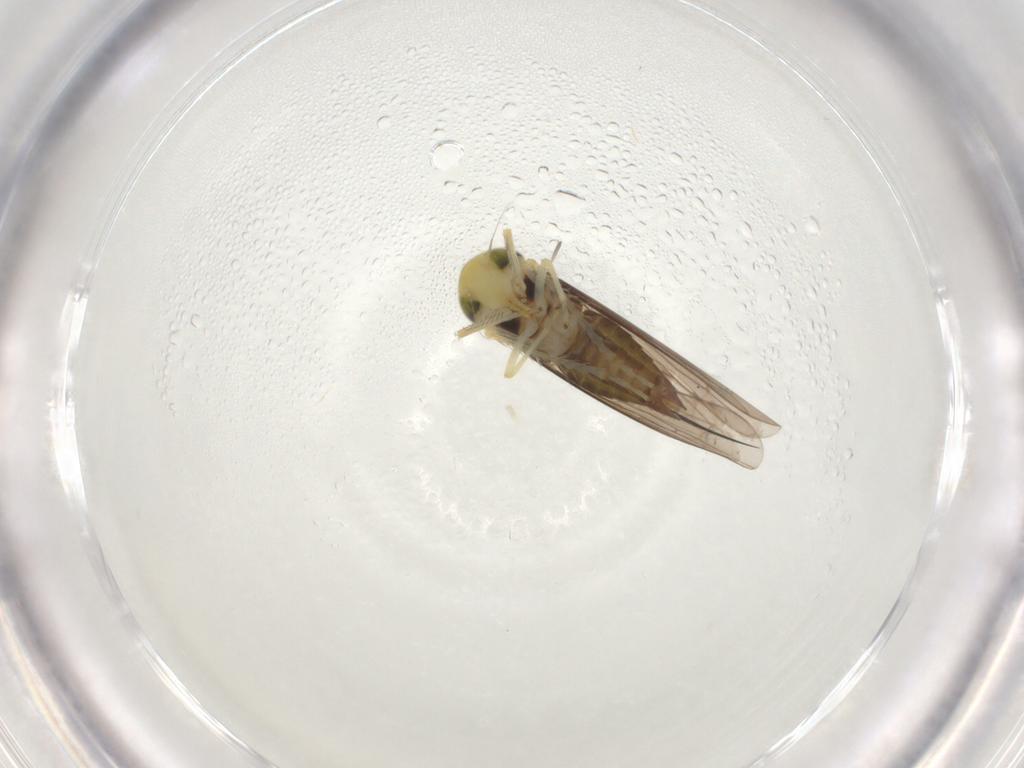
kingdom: Animalia
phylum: Arthropoda
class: Insecta
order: Hemiptera
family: Cicadellidae
